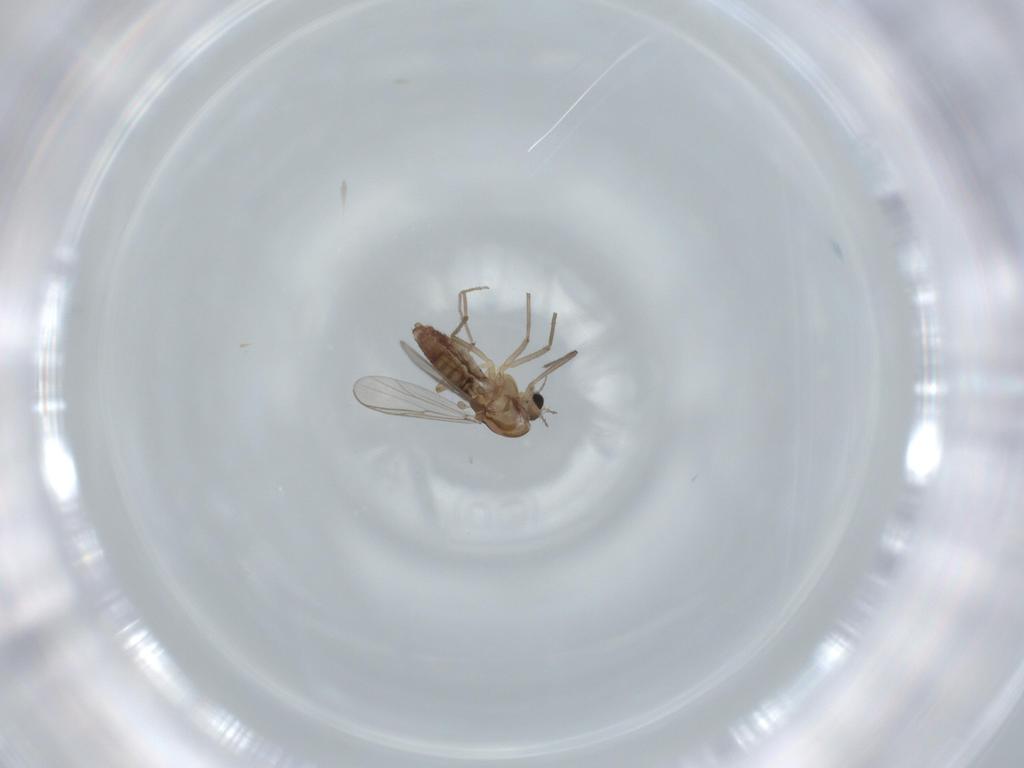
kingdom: Animalia
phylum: Arthropoda
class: Insecta
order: Diptera
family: Chironomidae
